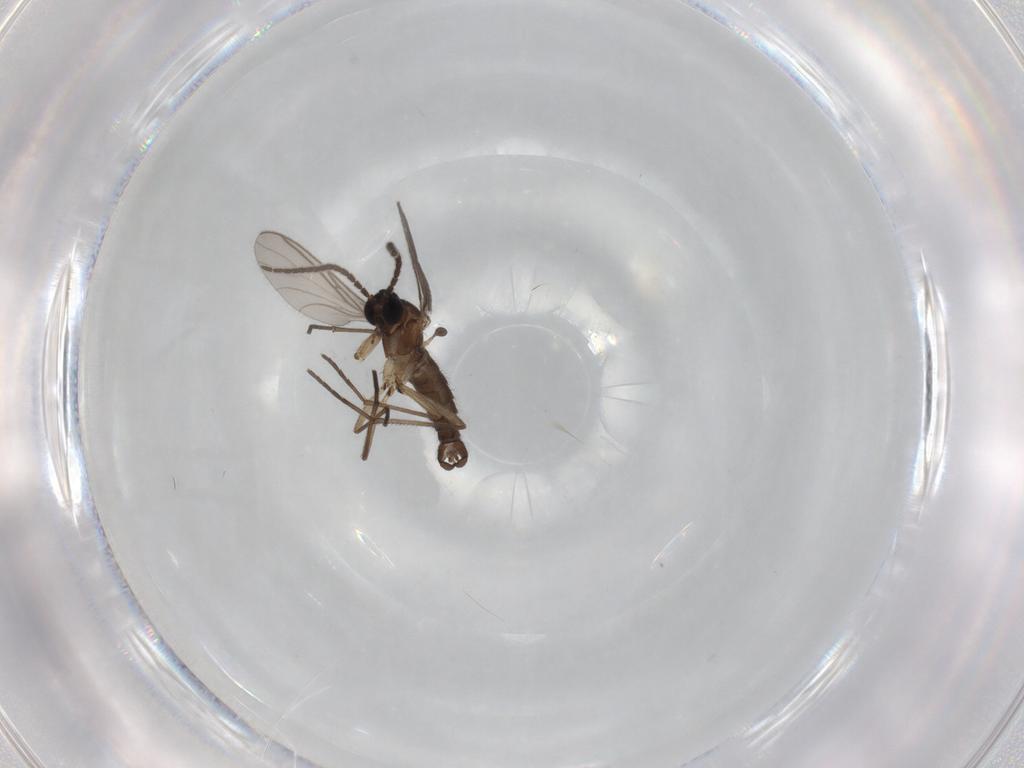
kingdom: Animalia
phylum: Arthropoda
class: Insecta
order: Diptera
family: Sciaridae
